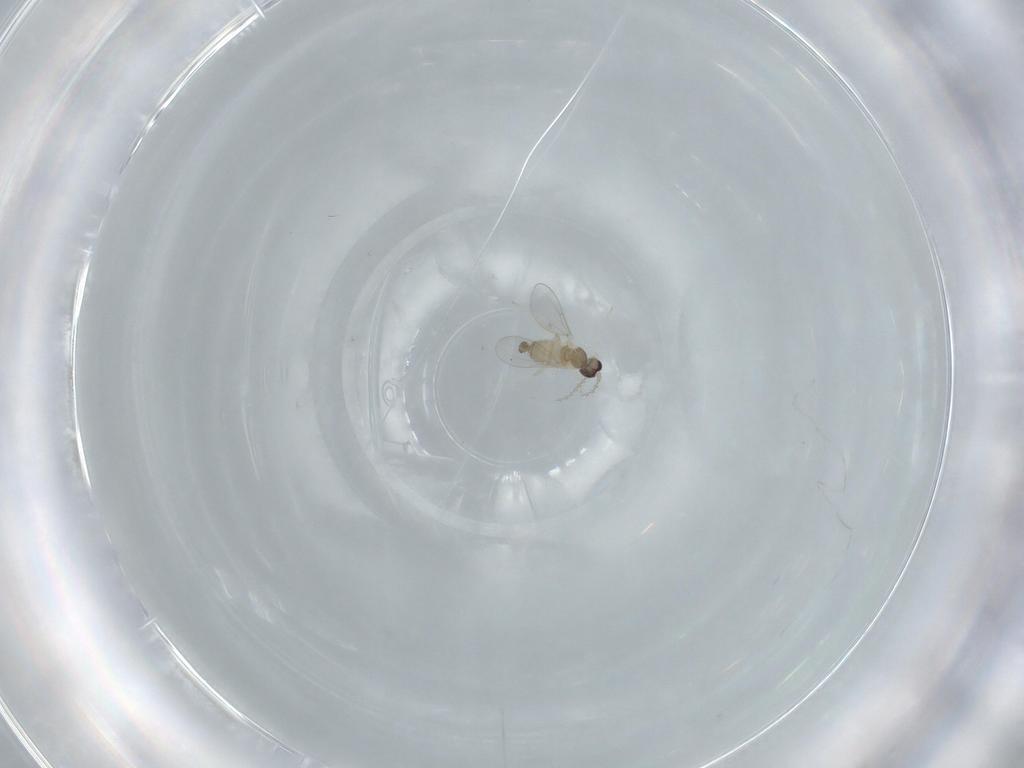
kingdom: Animalia
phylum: Arthropoda
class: Insecta
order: Diptera
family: Cecidomyiidae
